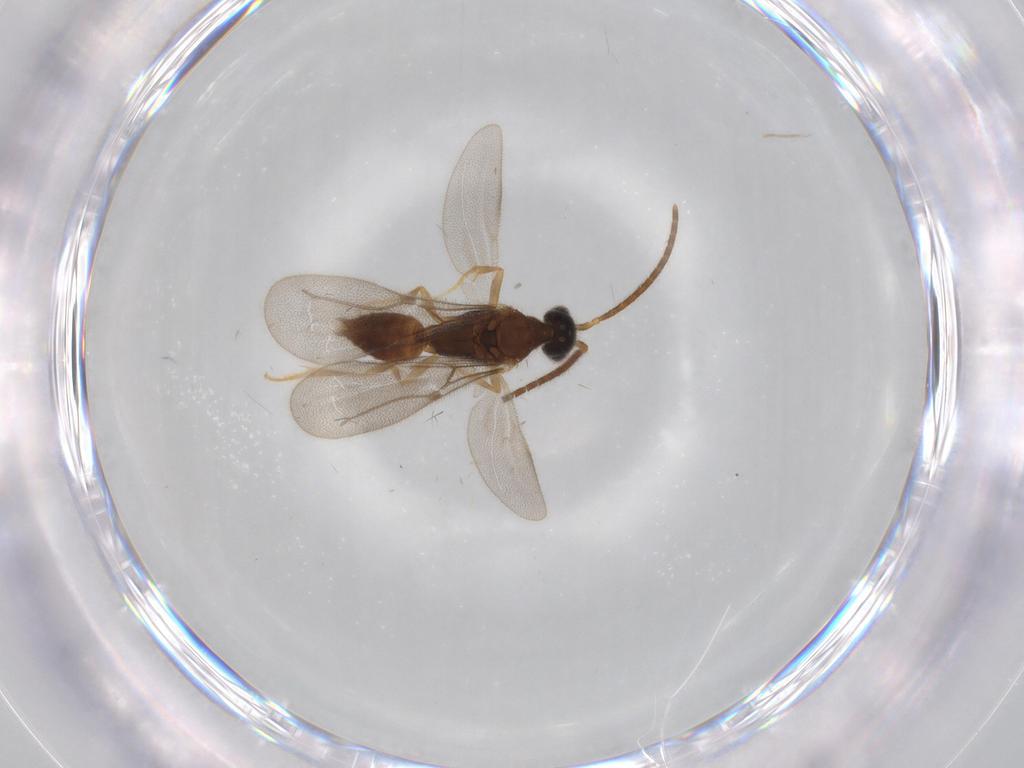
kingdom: Animalia
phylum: Arthropoda
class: Insecta
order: Hymenoptera
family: Bethylidae
